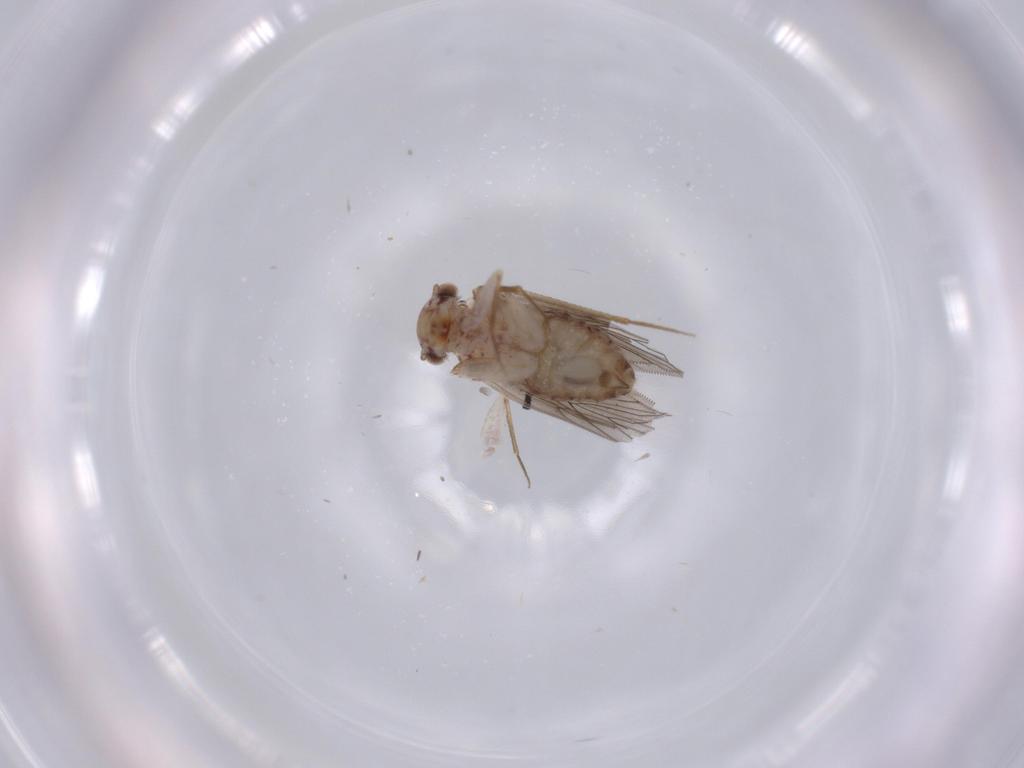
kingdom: Animalia
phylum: Arthropoda
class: Insecta
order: Psocodea
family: Lepidopsocidae
